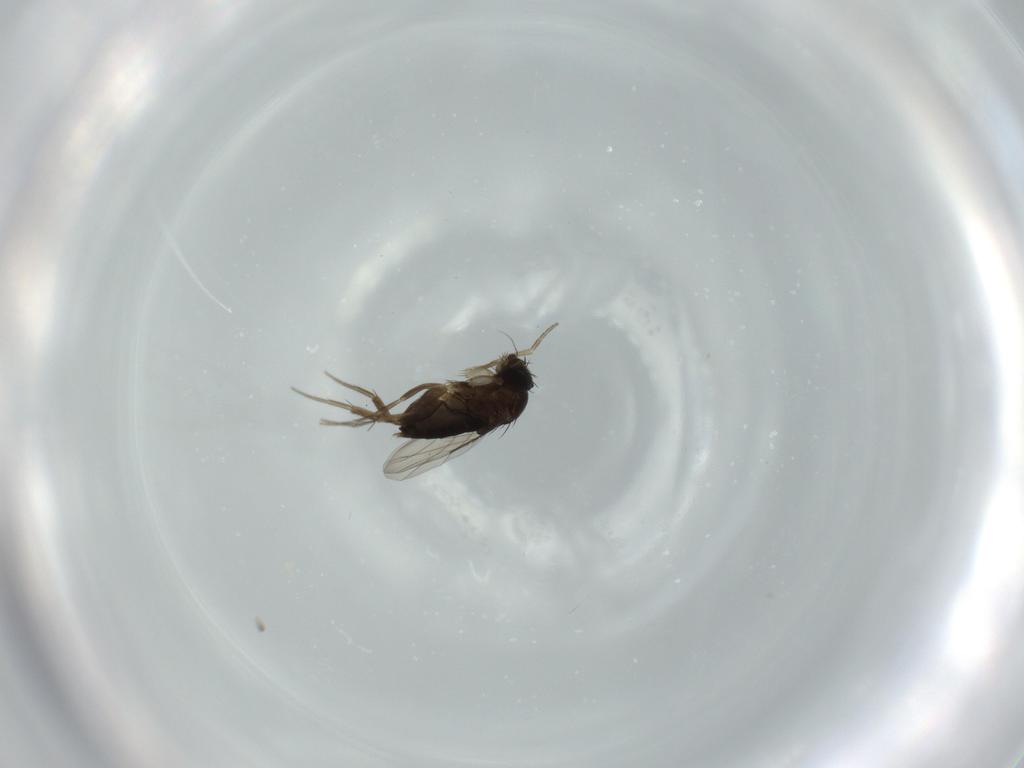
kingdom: Animalia
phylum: Arthropoda
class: Insecta
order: Diptera
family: Phoridae
